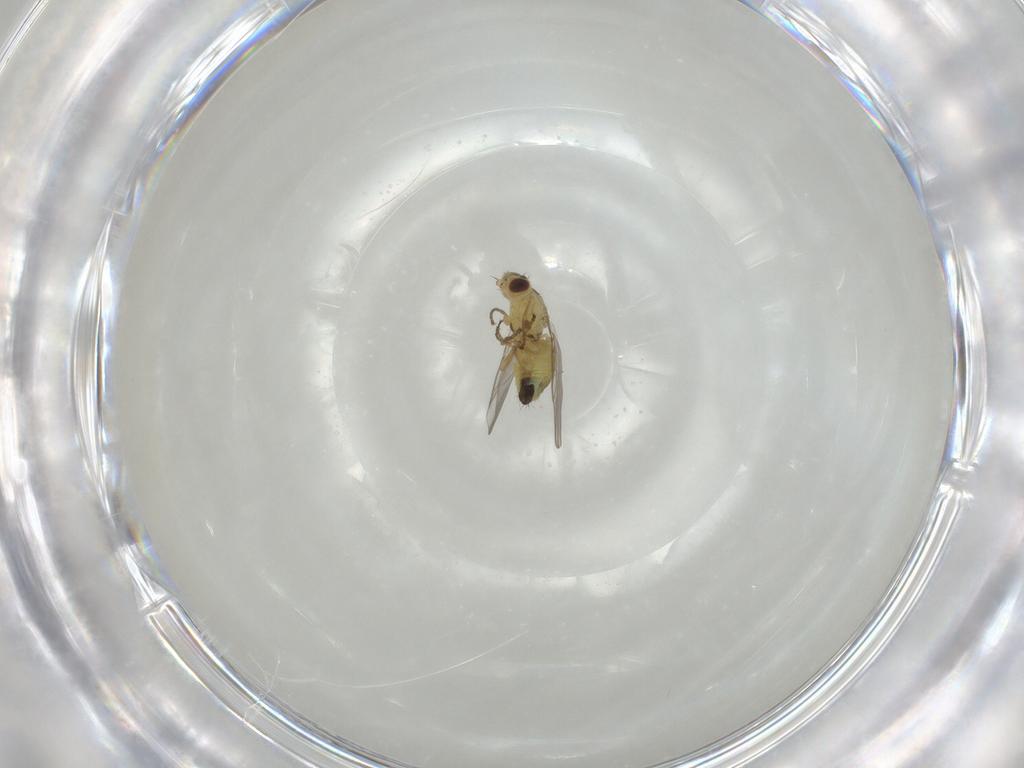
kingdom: Animalia
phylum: Arthropoda
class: Insecta
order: Diptera
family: Agromyzidae
